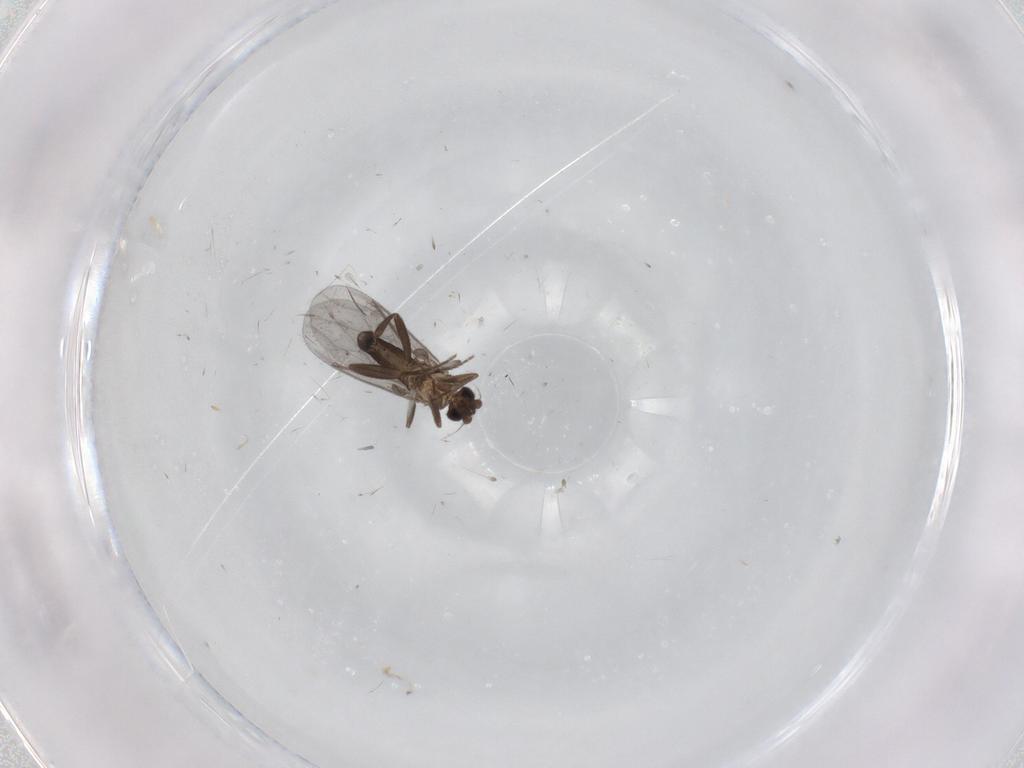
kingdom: Animalia
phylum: Arthropoda
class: Insecta
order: Diptera
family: Phoridae
